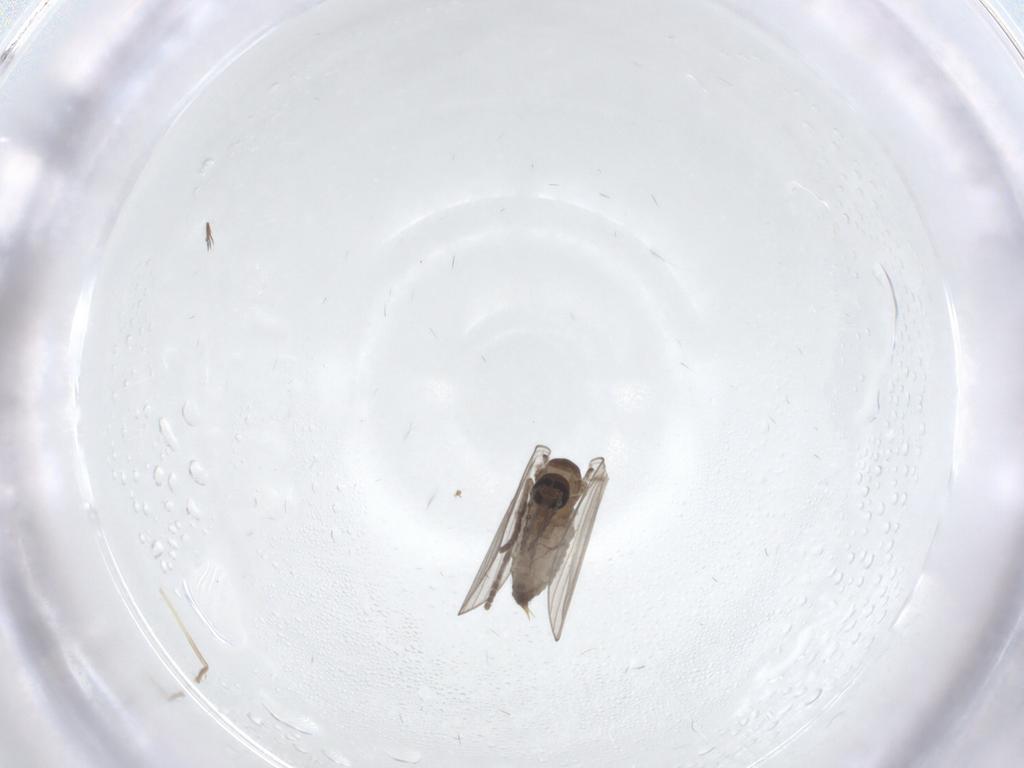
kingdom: Animalia
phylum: Arthropoda
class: Insecta
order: Diptera
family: Psychodidae
